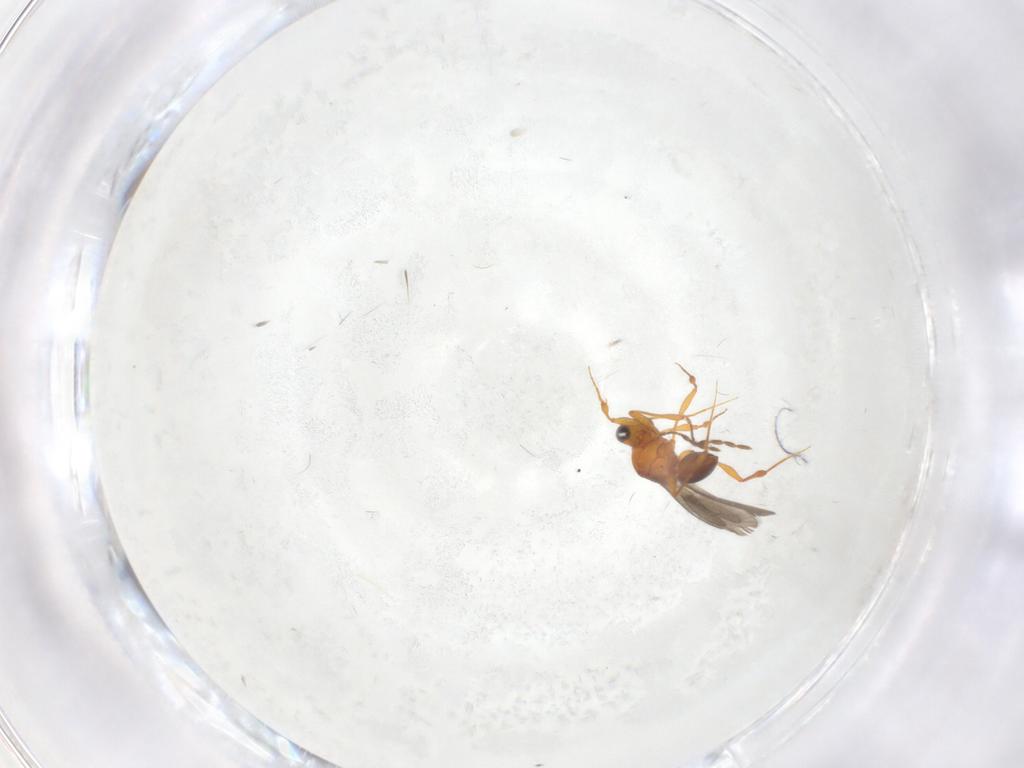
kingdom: Animalia
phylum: Arthropoda
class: Insecta
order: Hymenoptera
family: Platygastridae
